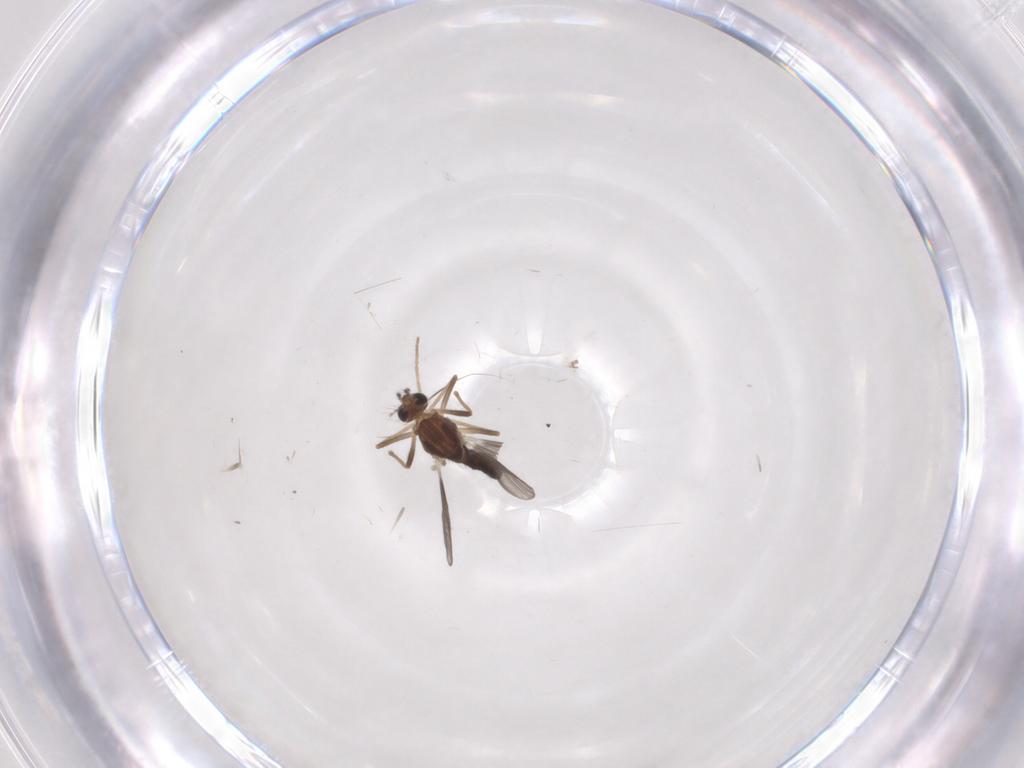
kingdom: Animalia
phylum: Arthropoda
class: Insecta
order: Diptera
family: Chironomidae
